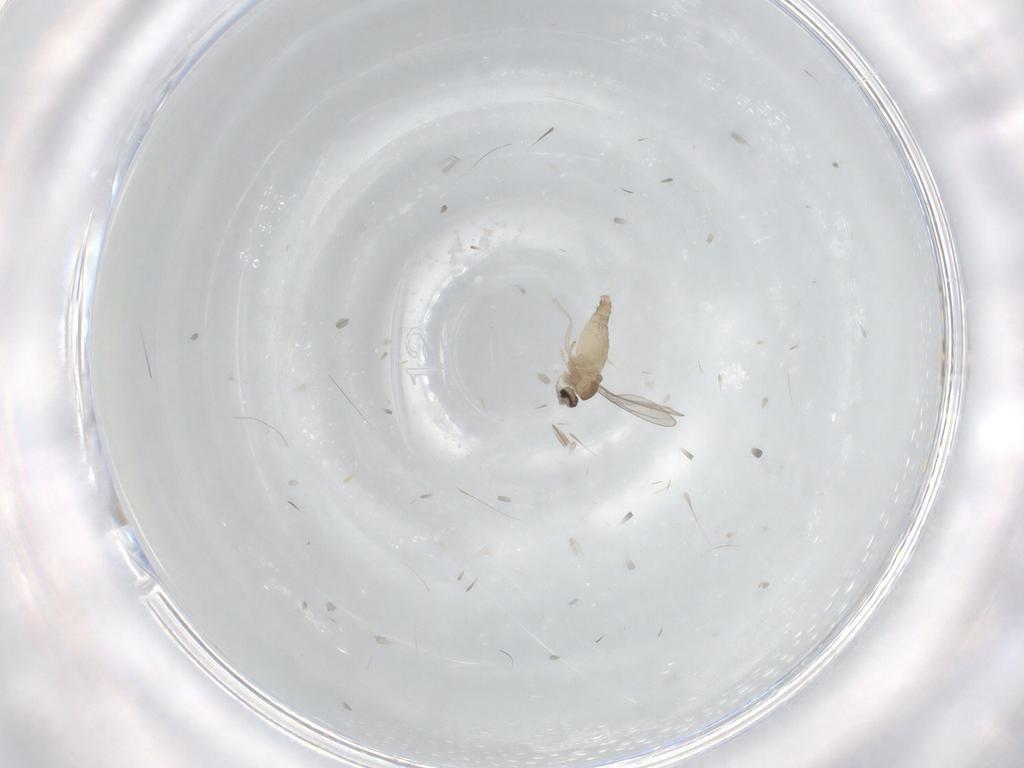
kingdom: Animalia
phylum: Arthropoda
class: Insecta
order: Diptera
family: Cecidomyiidae
